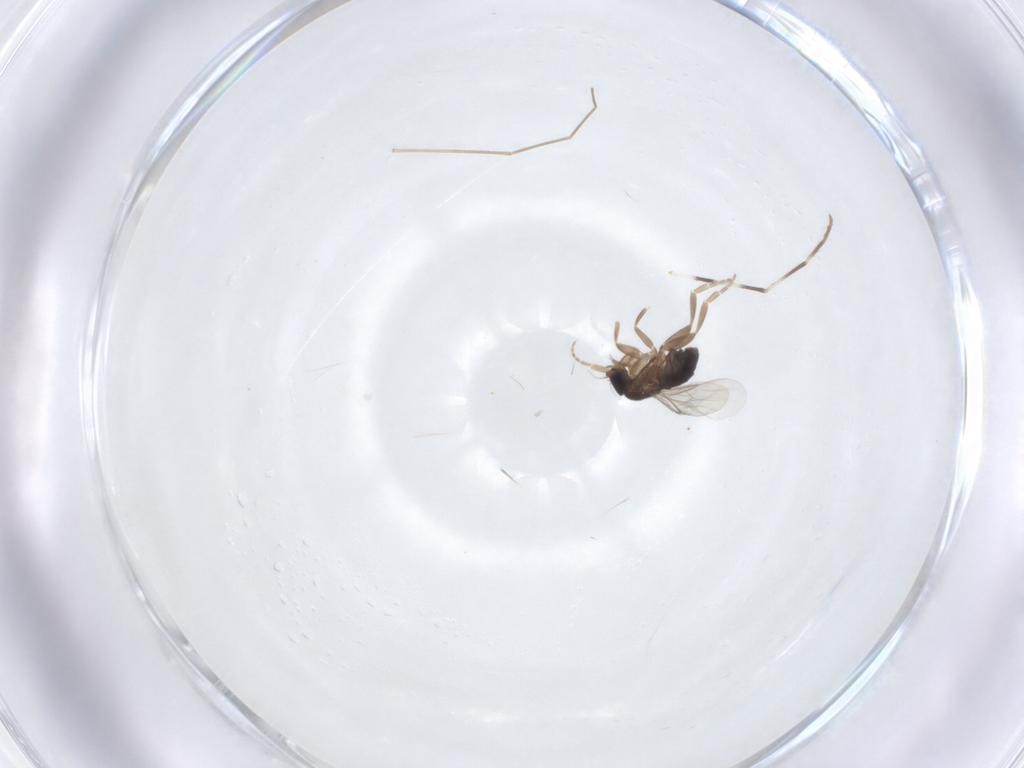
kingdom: Animalia
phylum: Arthropoda
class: Insecta
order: Diptera
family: Phoridae
